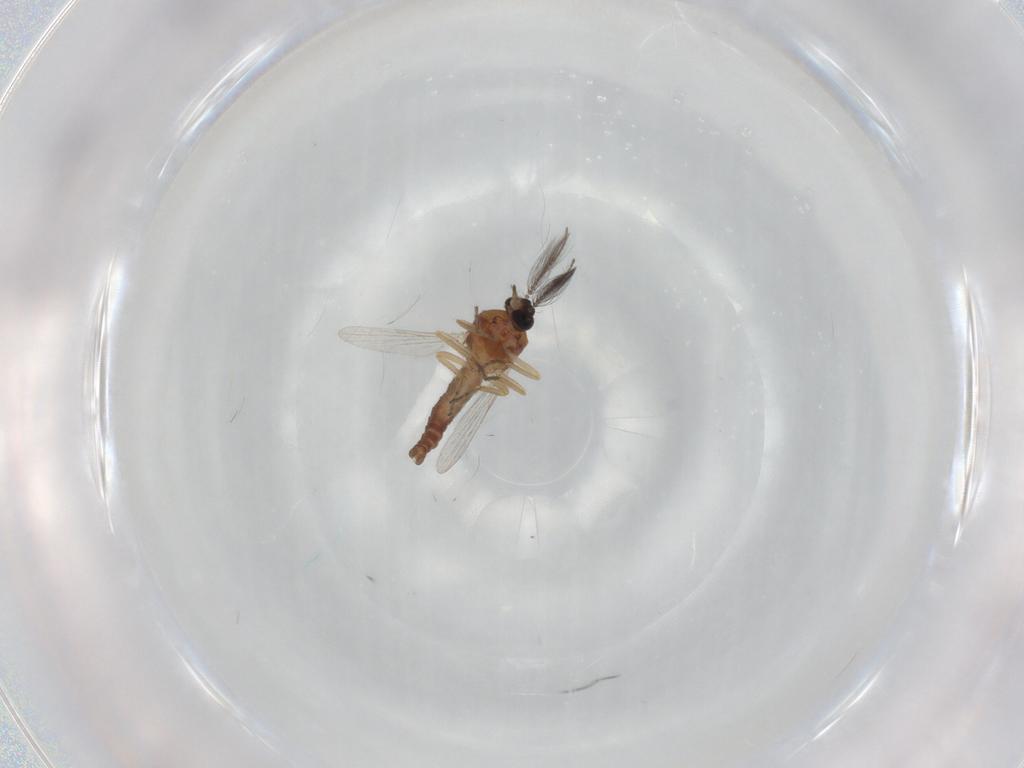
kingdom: Animalia
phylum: Arthropoda
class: Insecta
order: Diptera
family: Ceratopogonidae
